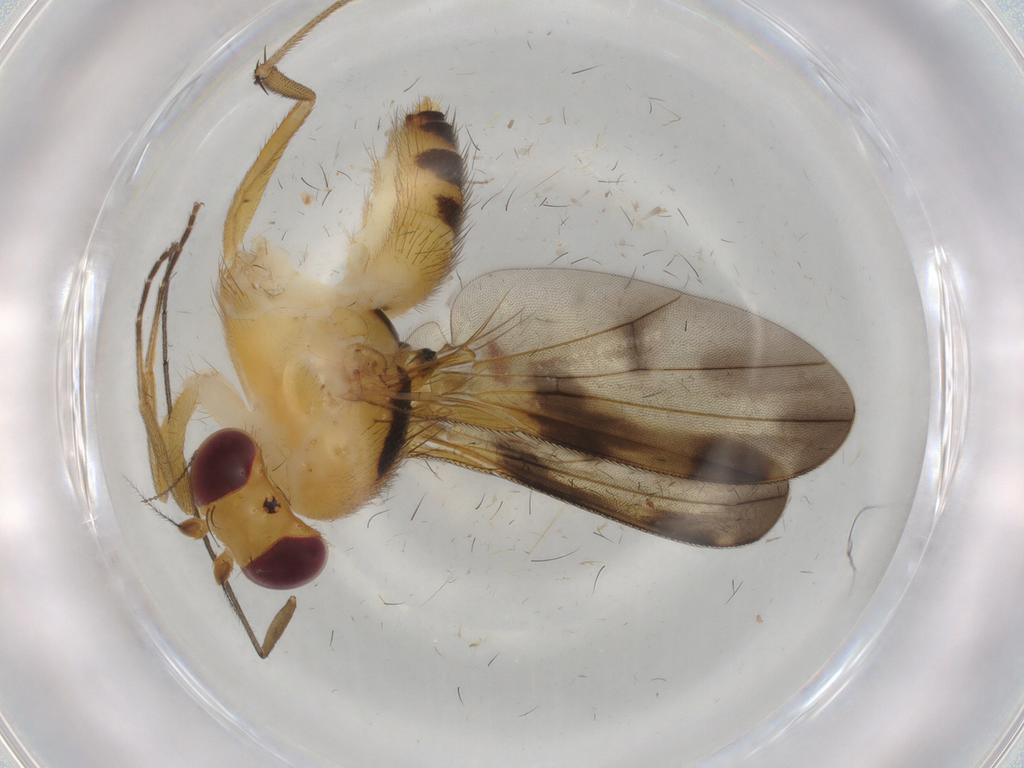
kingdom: Animalia
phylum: Arthropoda
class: Insecta
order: Diptera
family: Clusiidae
